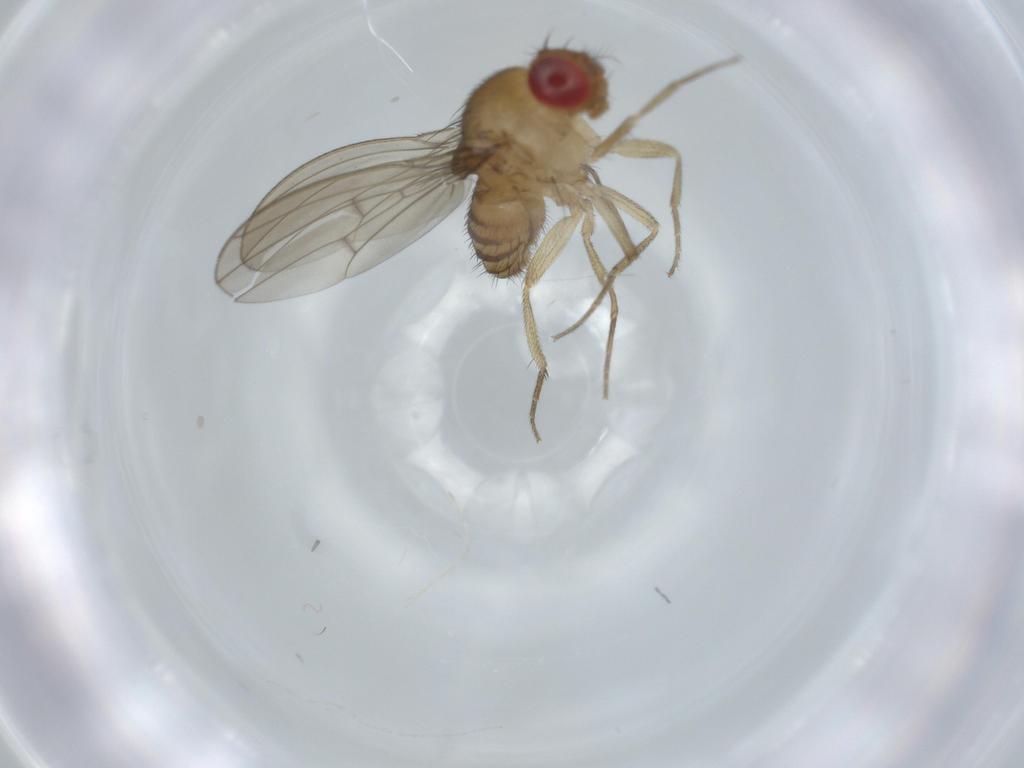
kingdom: Animalia
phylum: Arthropoda
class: Insecta
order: Diptera
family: Drosophilidae
